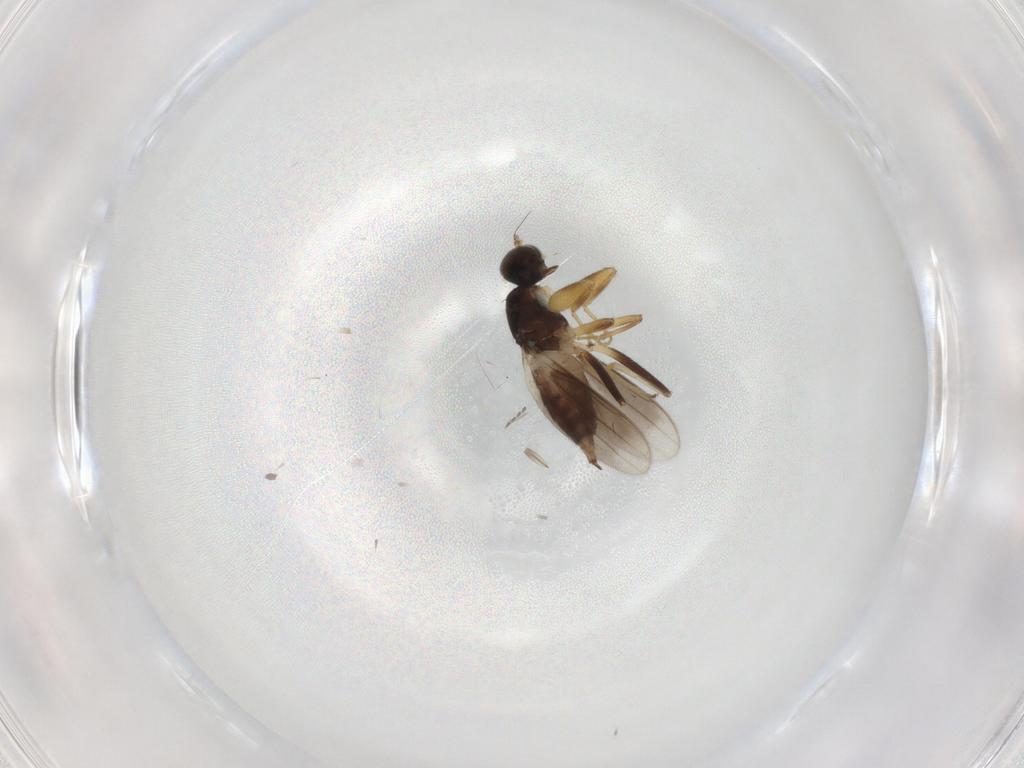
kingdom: Animalia
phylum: Arthropoda
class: Insecta
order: Diptera
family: Hybotidae
